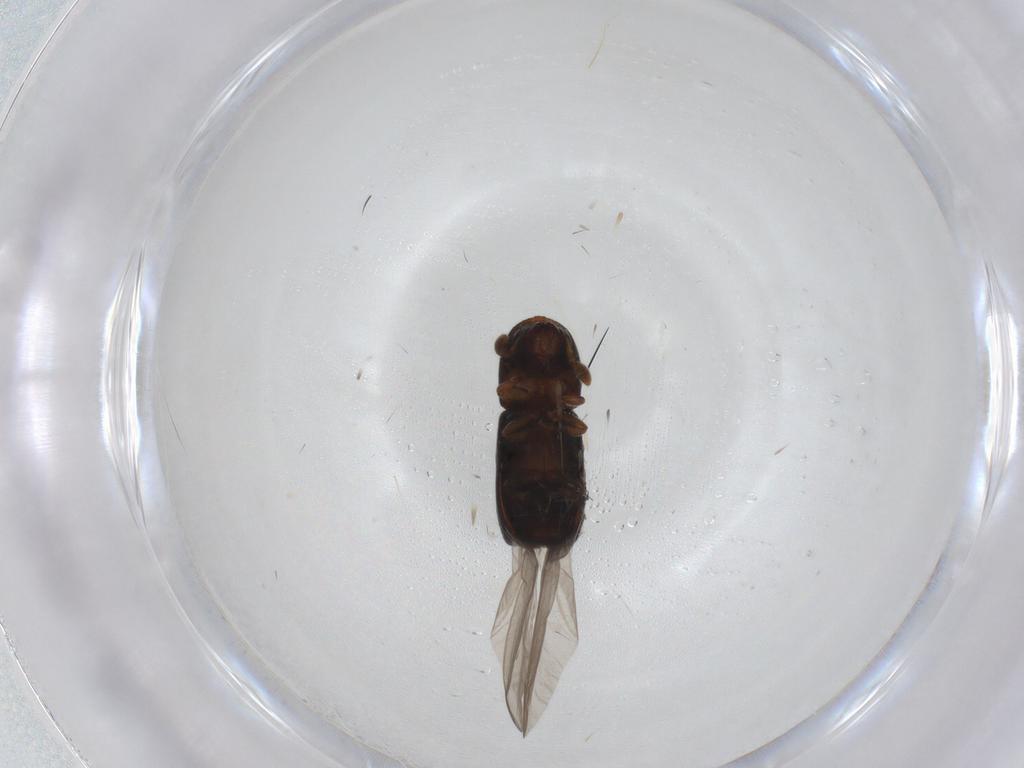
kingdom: Animalia
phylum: Arthropoda
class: Insecta
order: Coleoptera
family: Curculionidae
